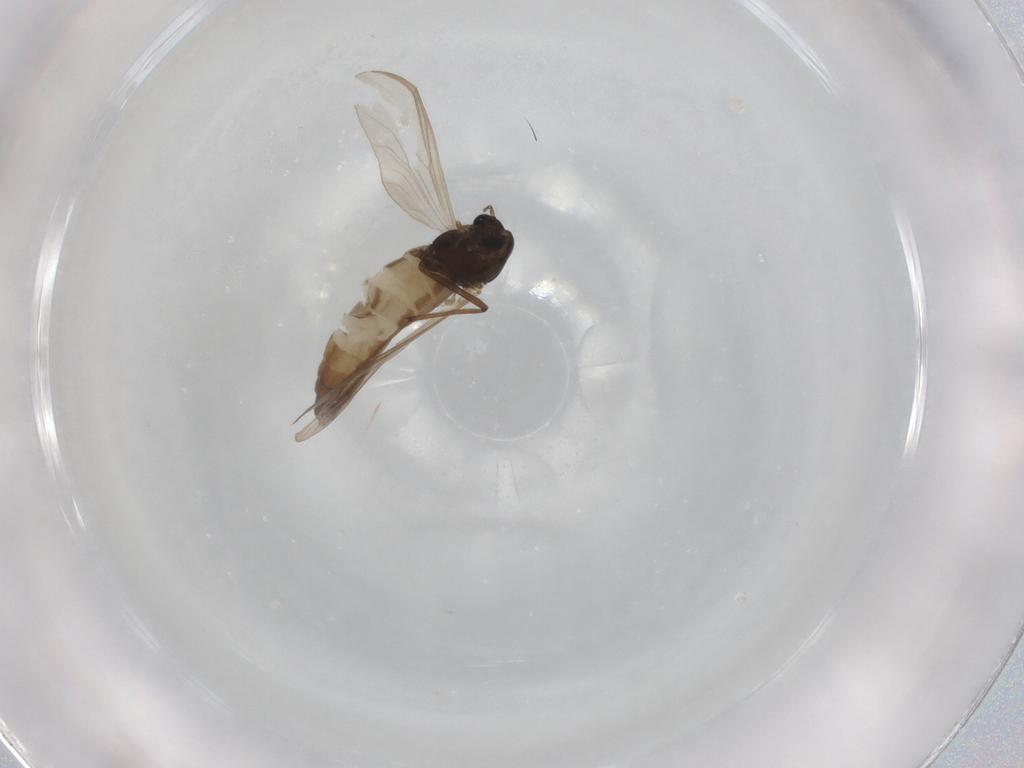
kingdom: Animalia
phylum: Arthropoda
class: Insecta
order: Diptera
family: Chironomidae
